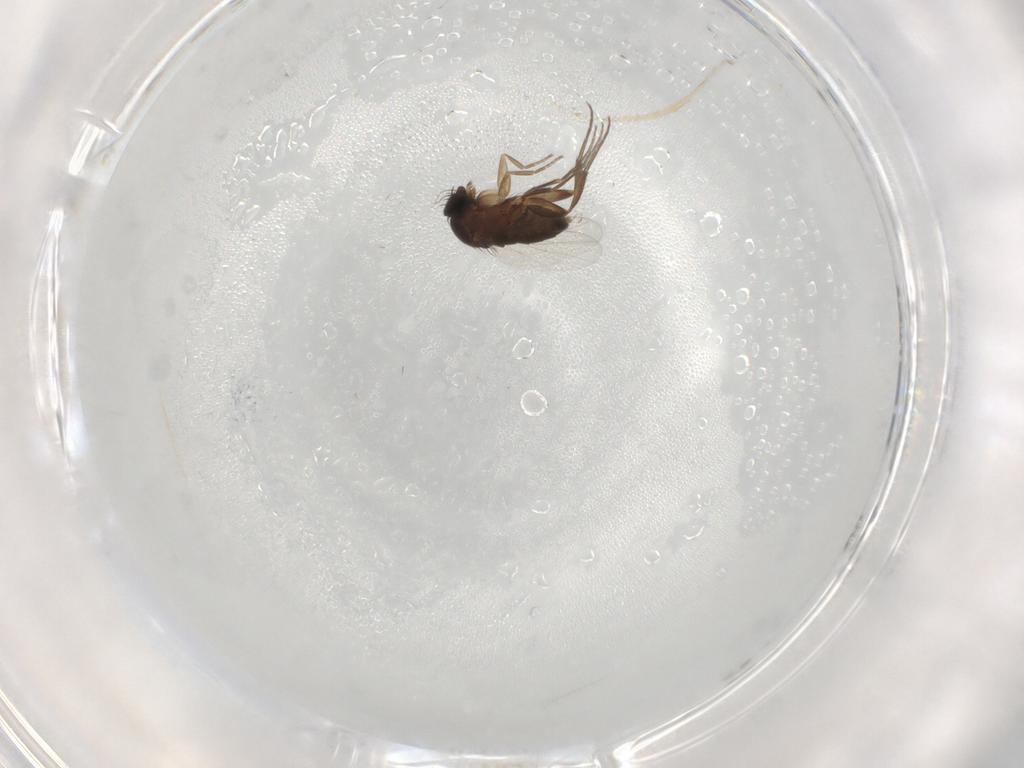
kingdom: Animalia
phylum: Arthropoda
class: Insecta
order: Diptera
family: Phoridae
